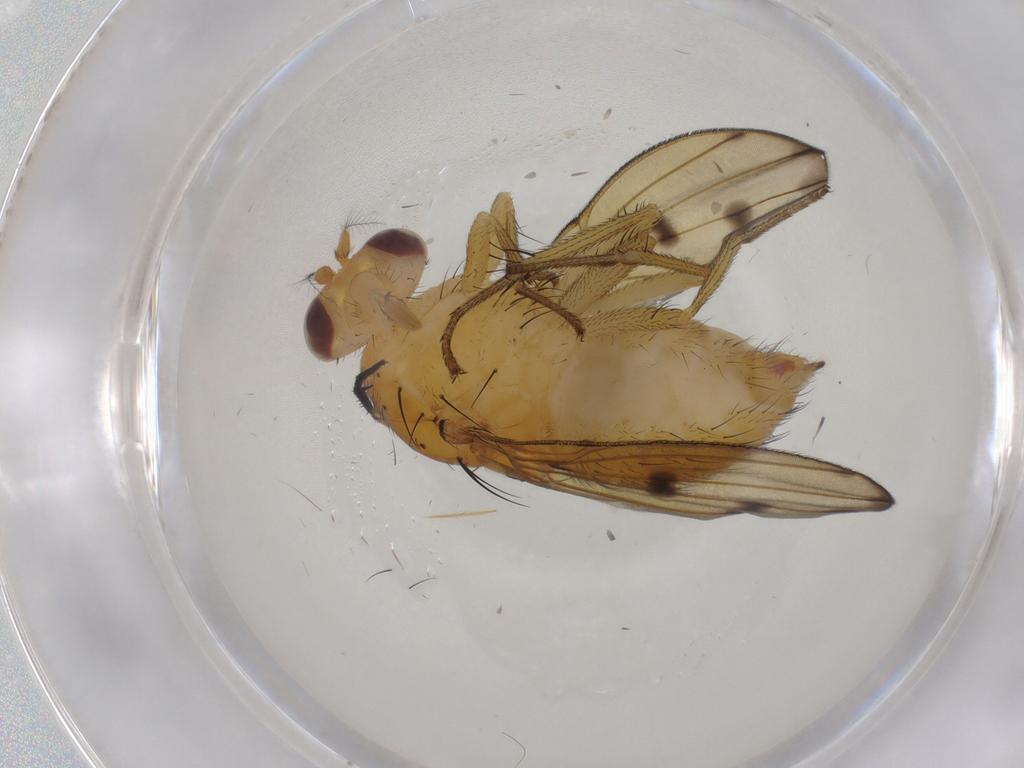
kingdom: Animalia
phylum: Arthropoda
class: Insecta
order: Diptera
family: Lauxaniidae
